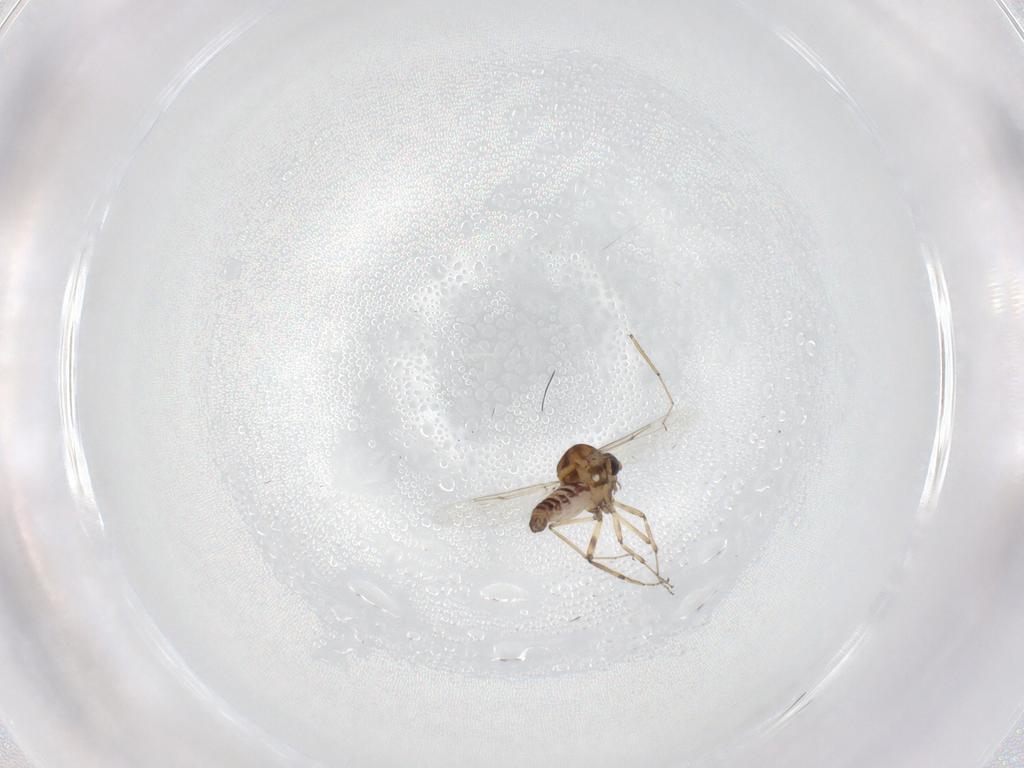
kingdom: Animalia
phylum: Arthropoda
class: Insecta
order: Diptera
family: Ceratopogonidae
